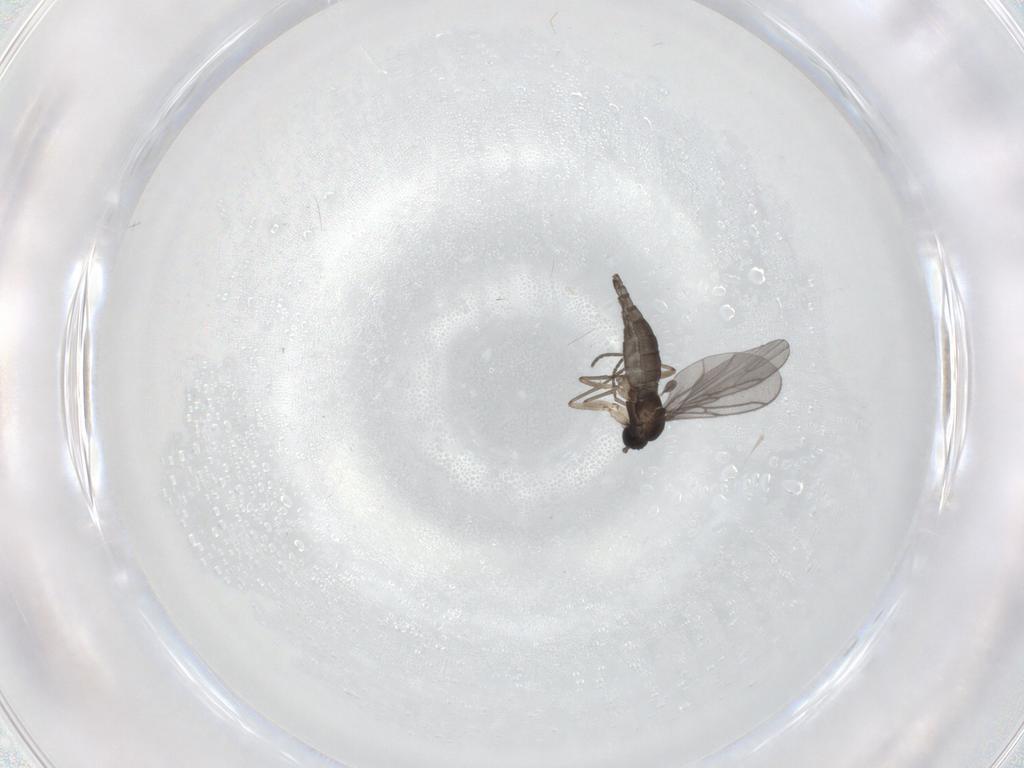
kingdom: Animalia
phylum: Arthropoda
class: Insecta
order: Diptera
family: Sciaridae
